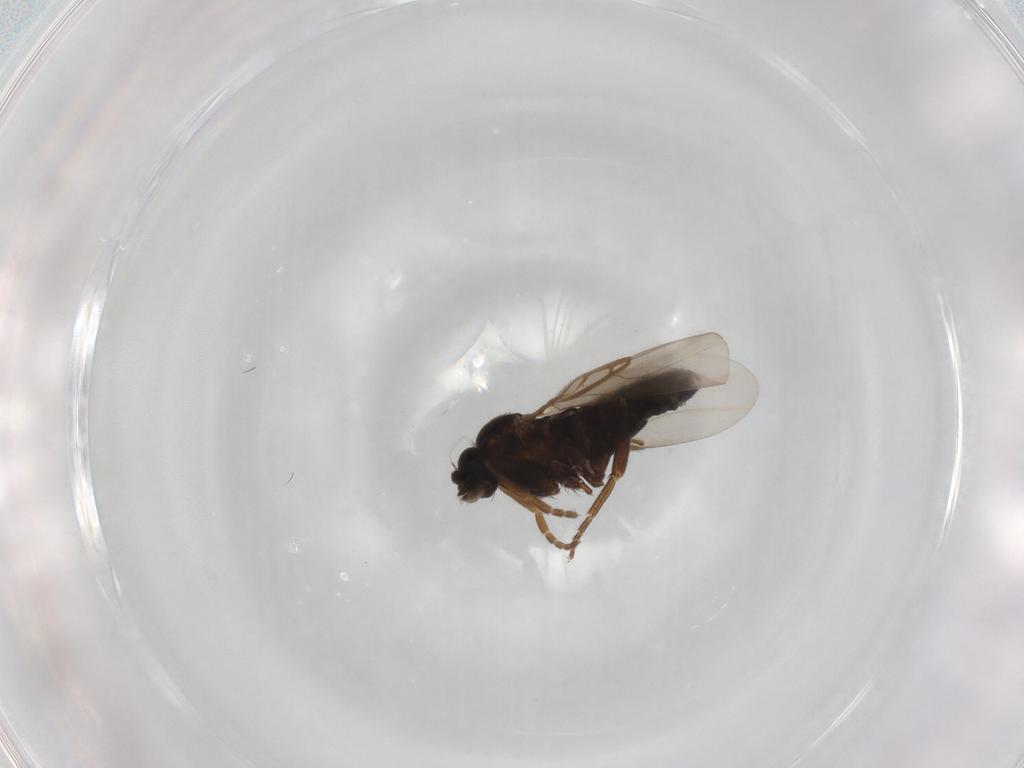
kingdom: Animalia
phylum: Arthropoda
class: Insecta
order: Diptera
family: Phoridae
